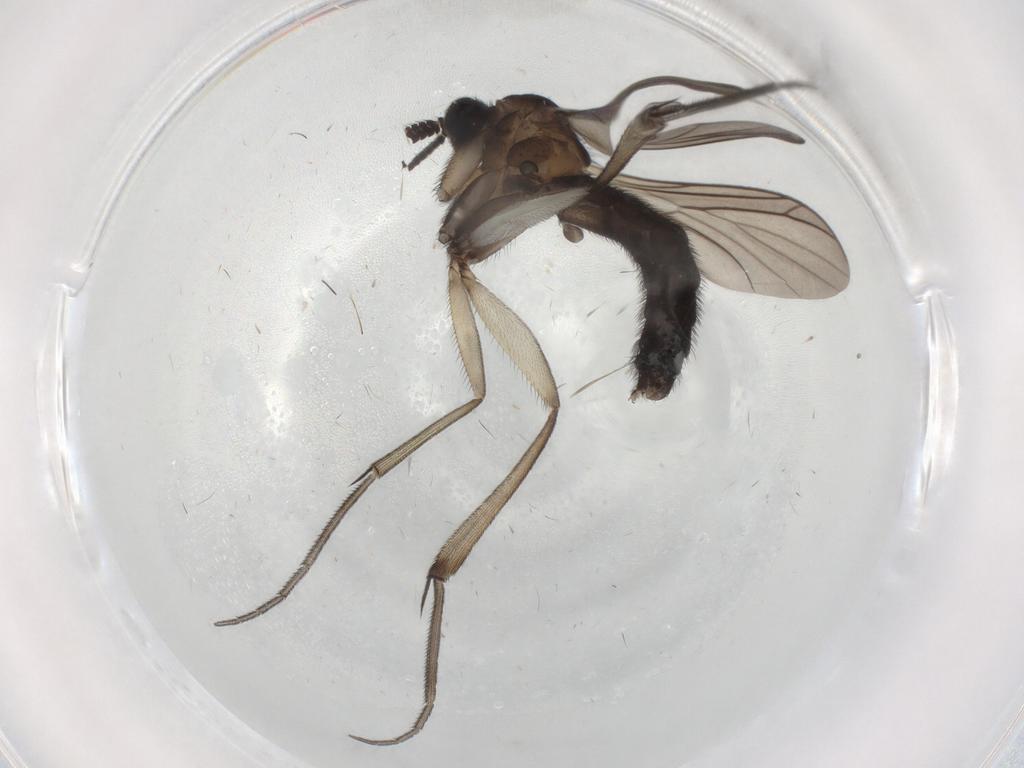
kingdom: Animalia
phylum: Arthropoda
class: Insecta
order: Diptera
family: Keroplatidae
